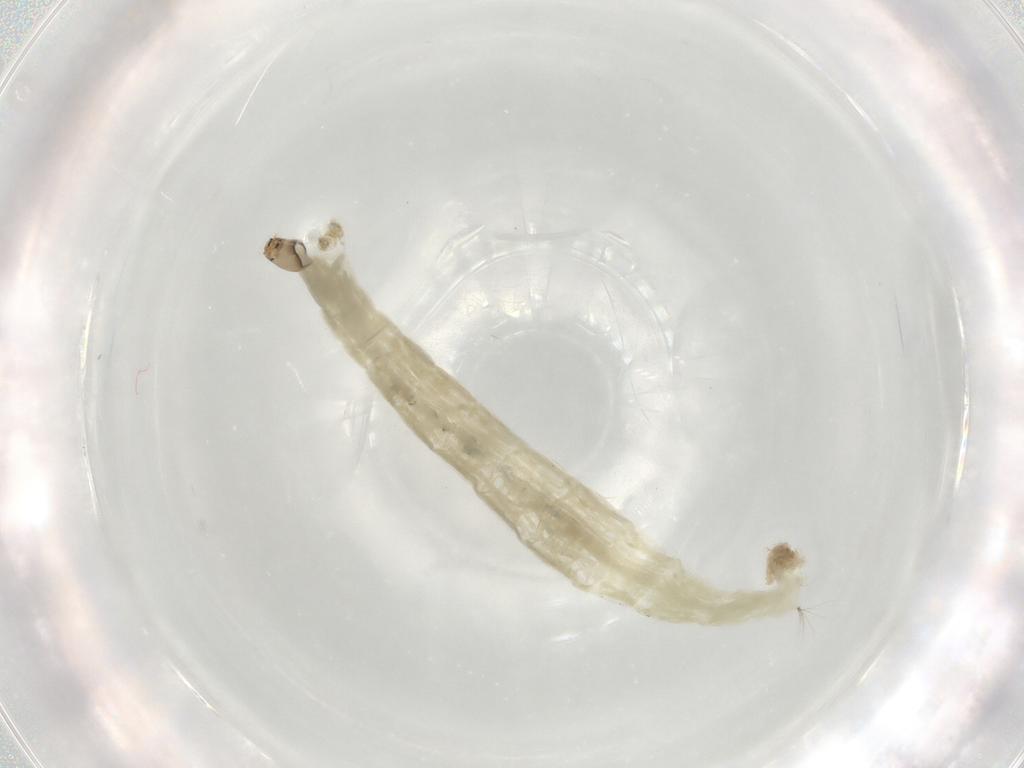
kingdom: Animalia
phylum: Arthropoda
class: Insecta
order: Diptera
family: Chironomidae
